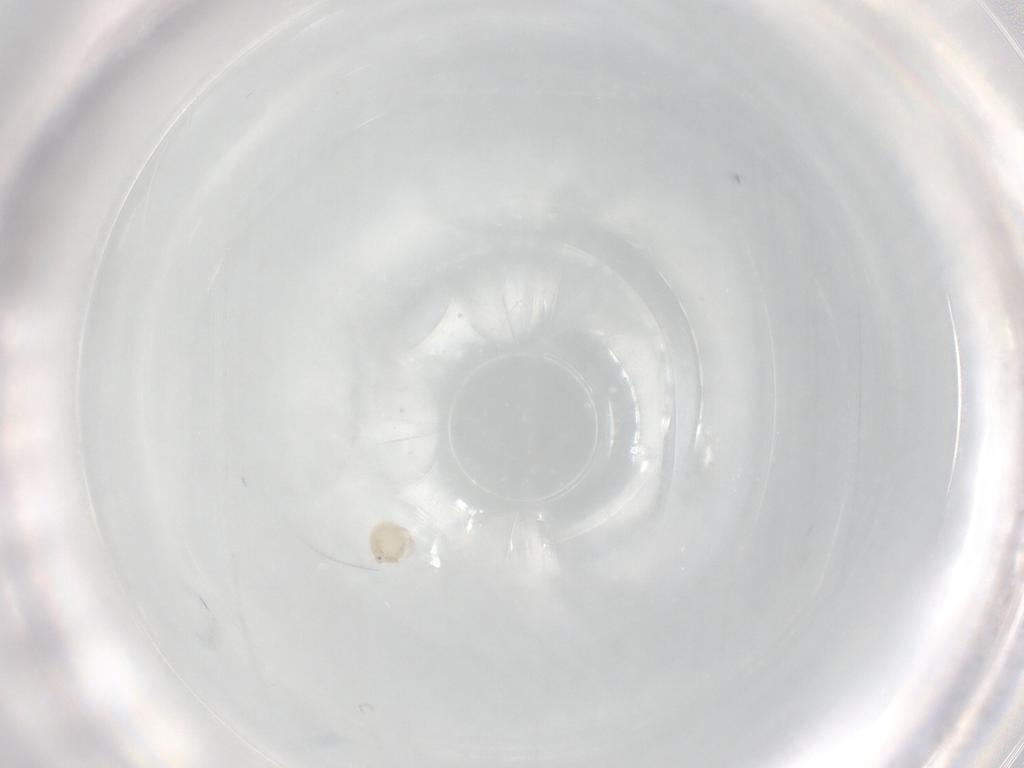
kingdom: Animalia
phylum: Arthropoda
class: Arachnida
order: Trombidiformes
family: Lebertiidae
